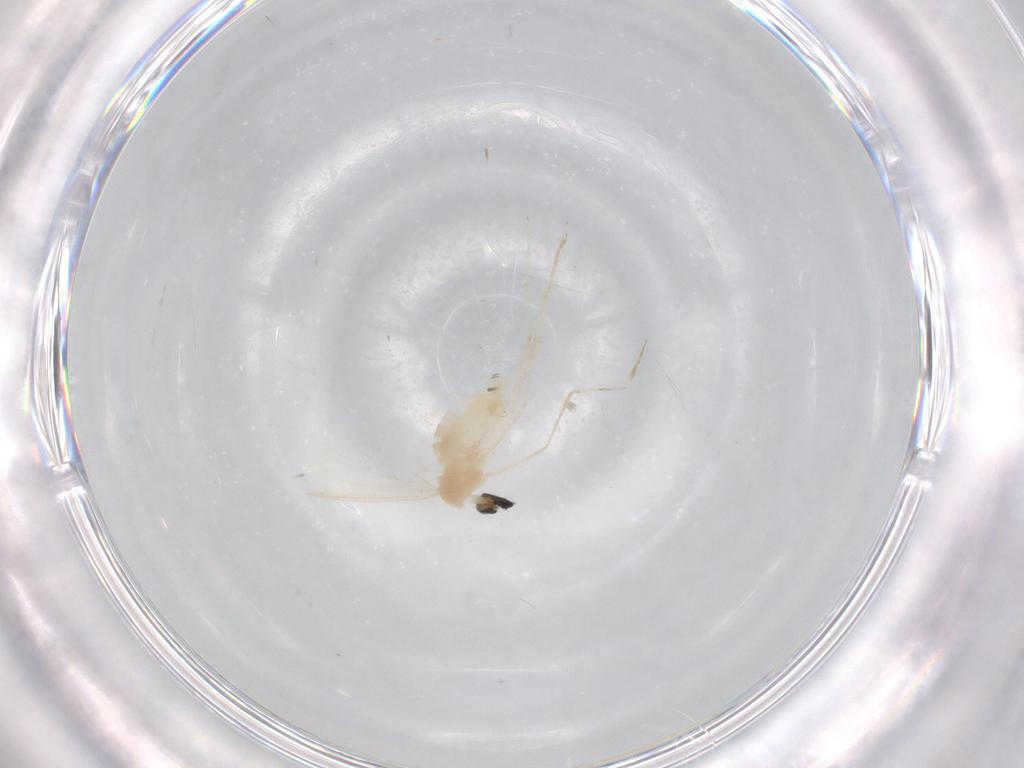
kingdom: Animalia
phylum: Arthropoda
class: Insecta
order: Diptera
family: Cecidomyiidae
